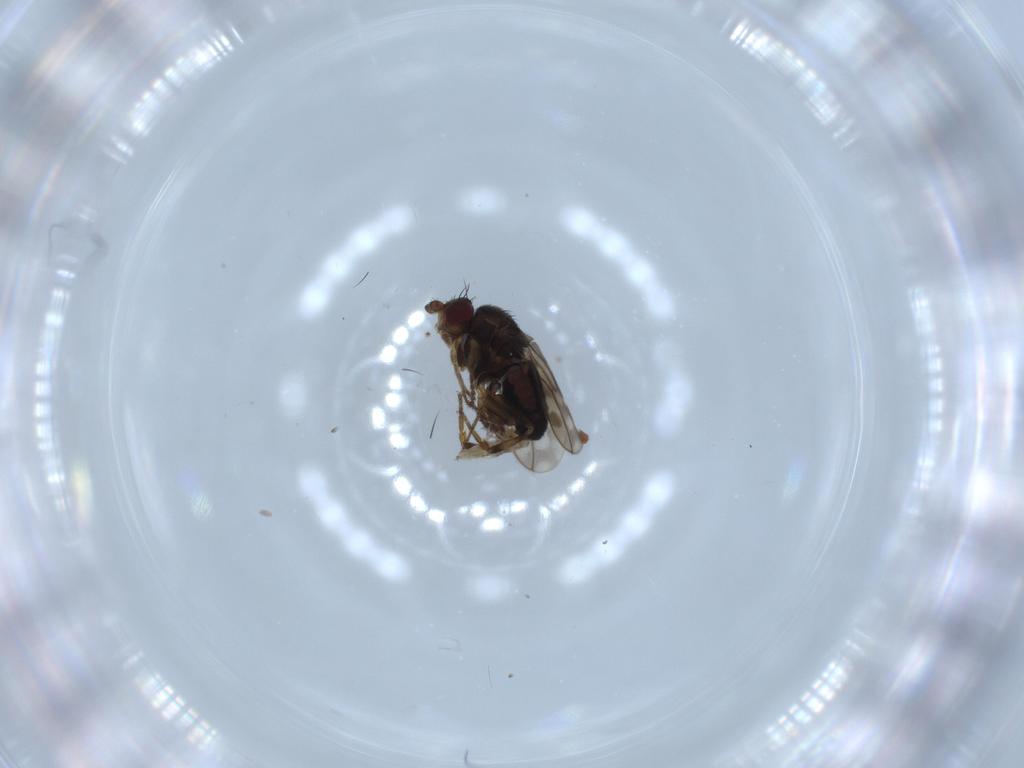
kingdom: Animalia
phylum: Arthropoda
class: Insecta
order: Diptera
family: Sphaeroceridae
